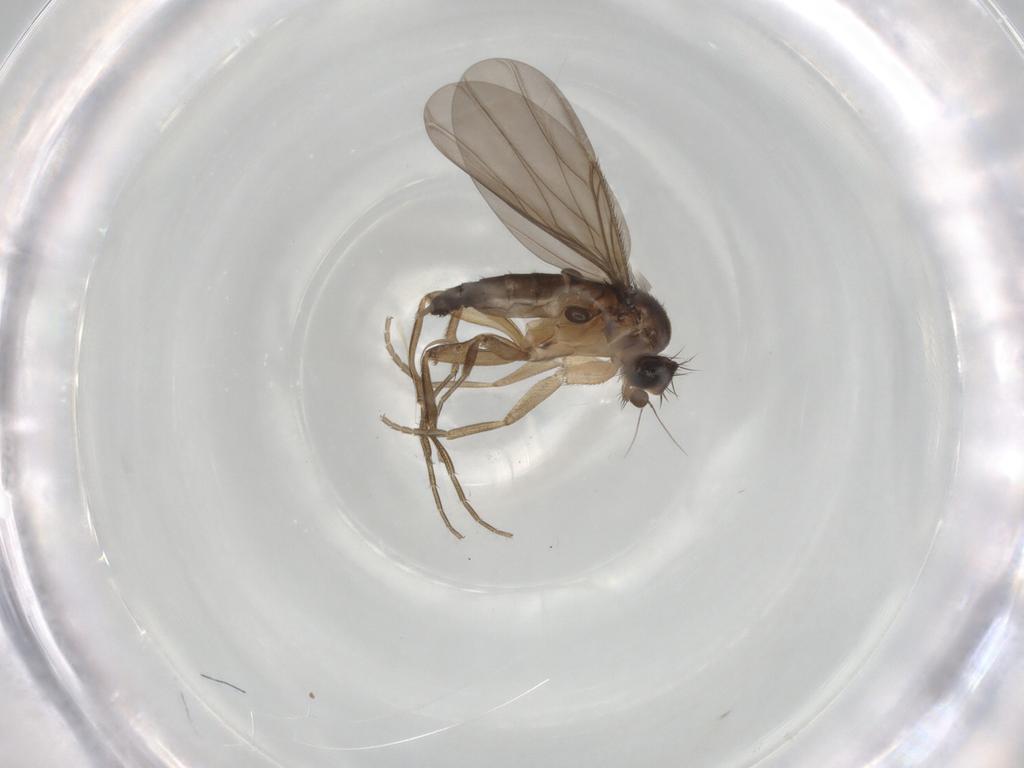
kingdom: Animalia
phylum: Arthropoda
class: Insecta
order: Diptera
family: Phoridae
